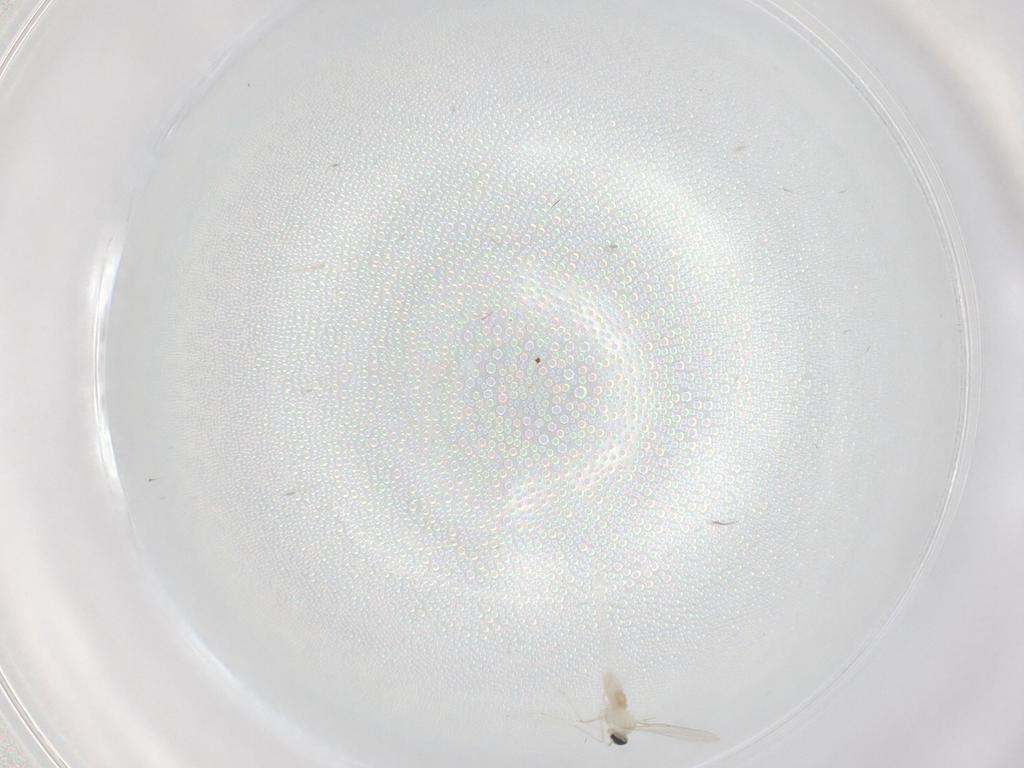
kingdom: Animalia
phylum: Arthropoda
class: Insecta
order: Diptera
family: Cecidomyiidae
